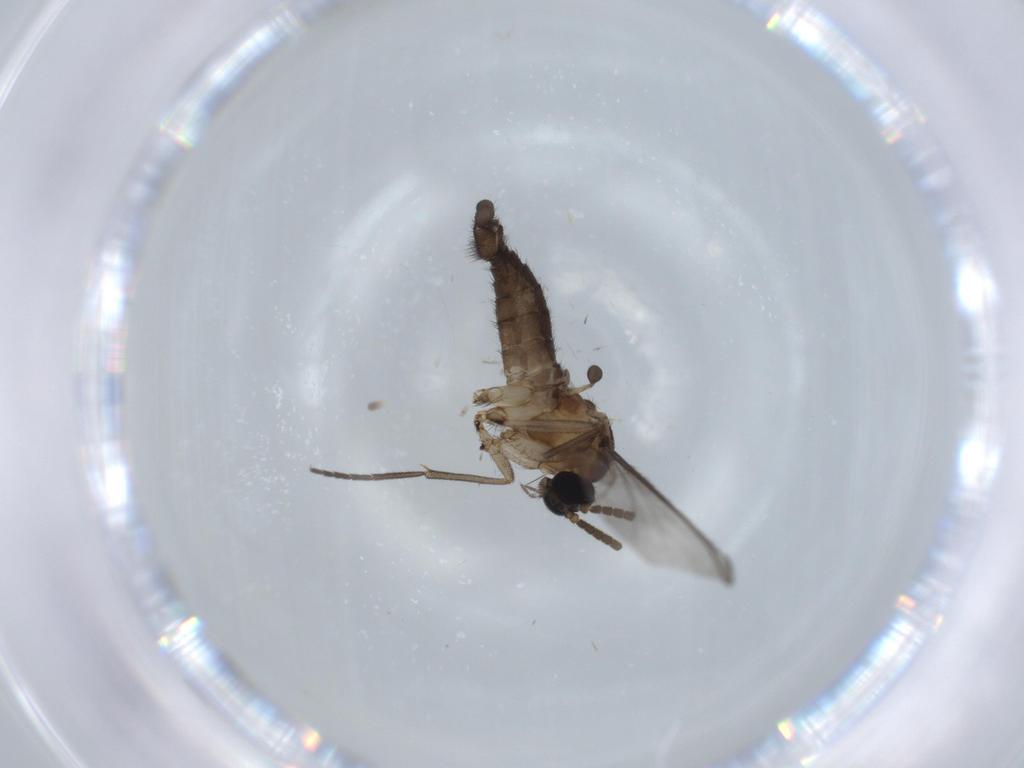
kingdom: Animalia
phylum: Arthropoda
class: Insecta
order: Diptera
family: Sciaridae
